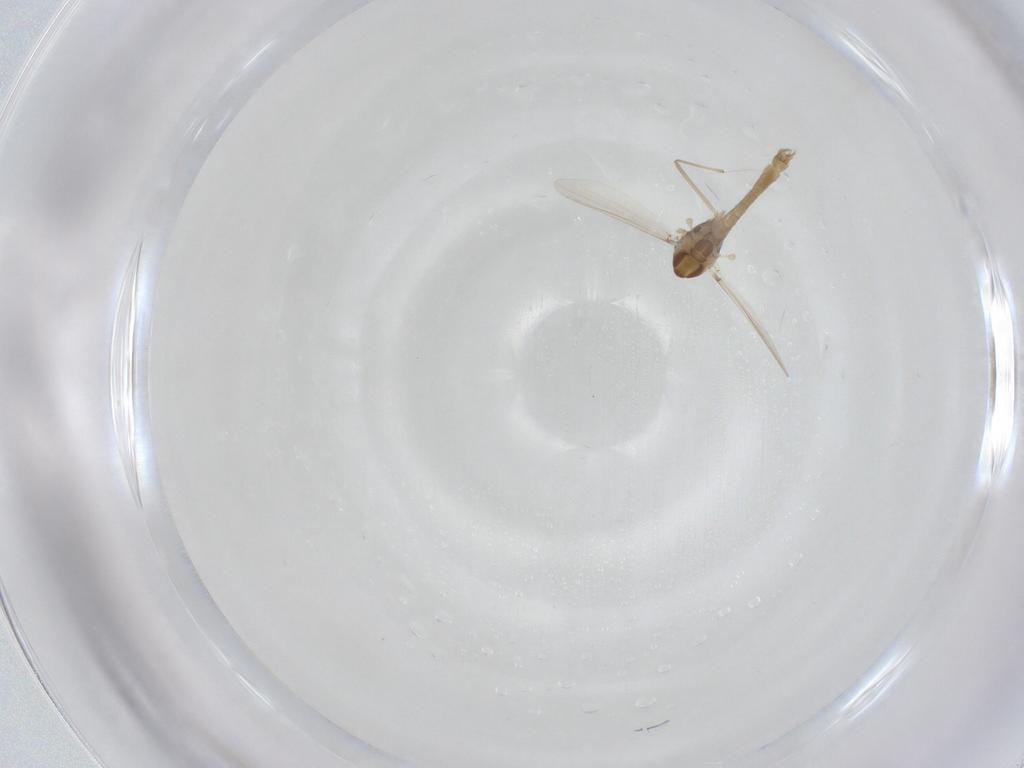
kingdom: Animalia
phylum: Arthropoda
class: Insecta
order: Diptera
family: Chironomidae
